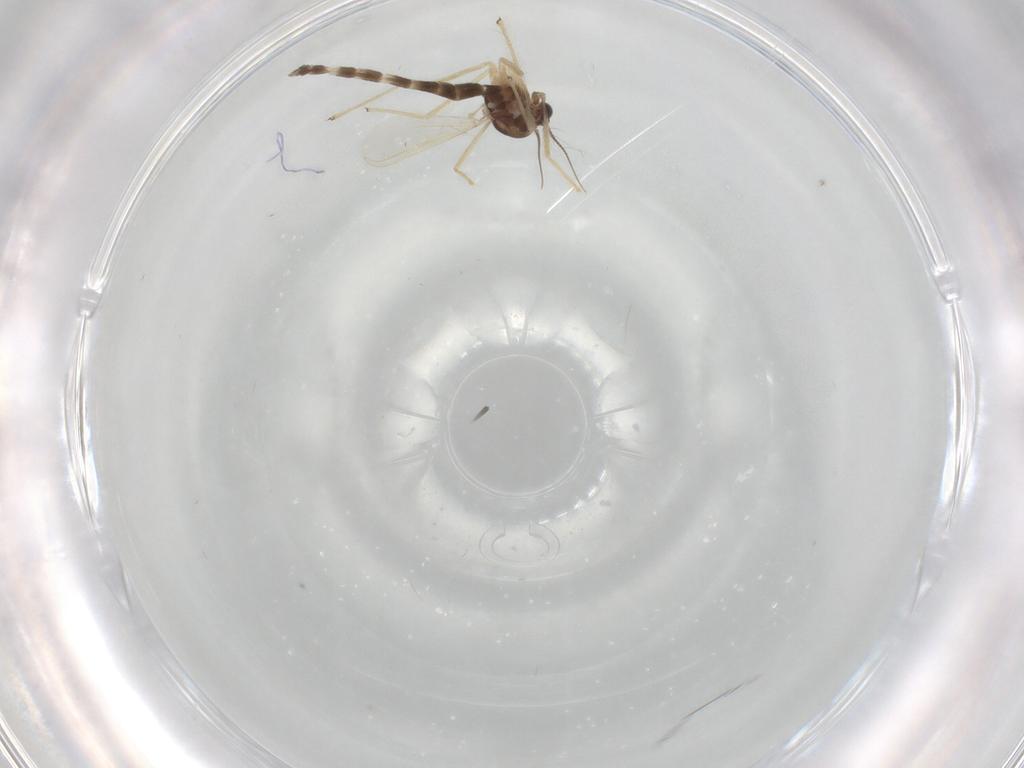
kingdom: Animalia
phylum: Arthropoda
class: Insecta
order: Diptera
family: Chironomidae
